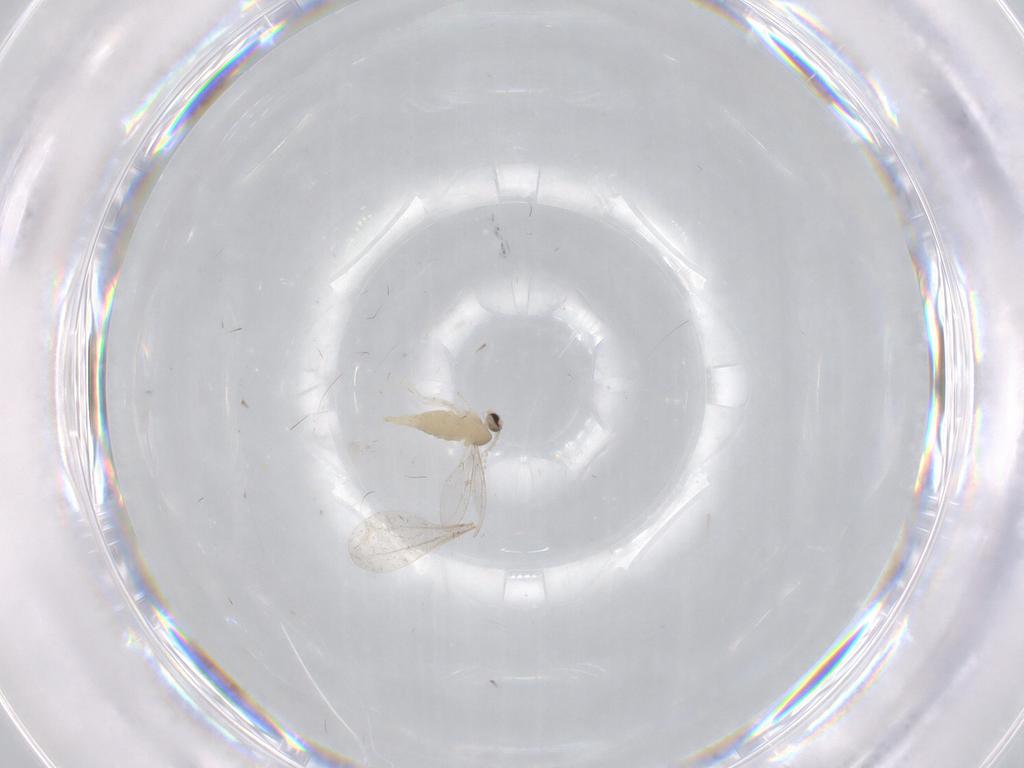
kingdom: Animalia
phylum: Arthropoda
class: Insecta
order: Diptera
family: Cecidomyiidae
